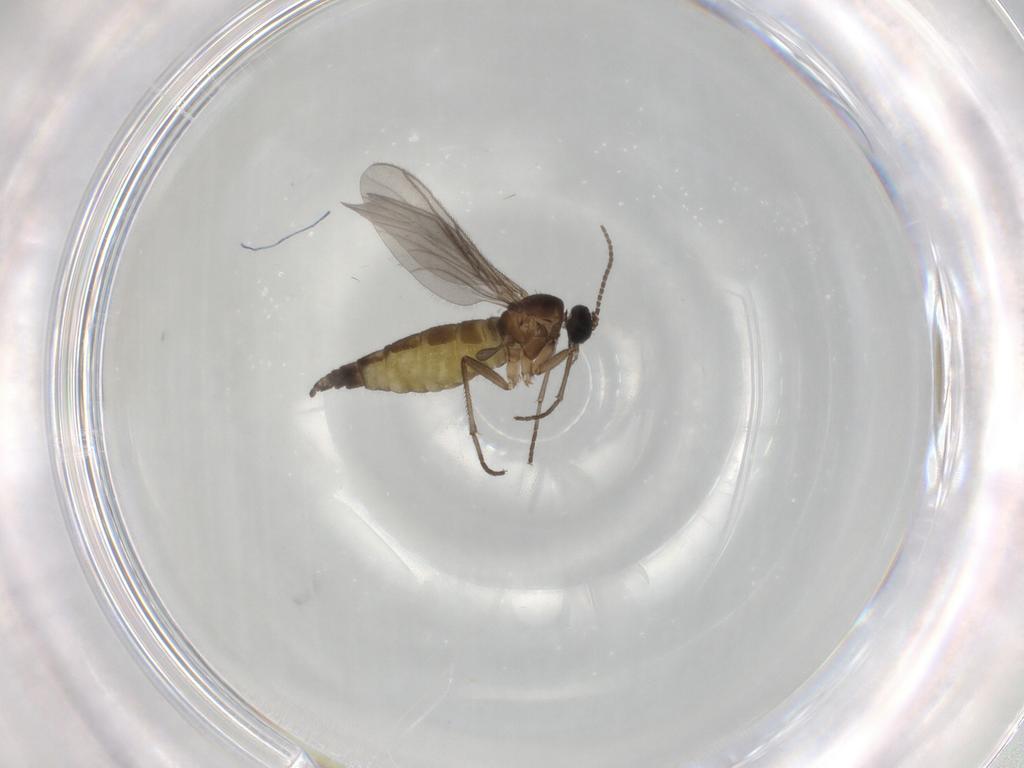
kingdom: Animalia
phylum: Arthropoda
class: Insecta
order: Diptera
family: Sciaridae
